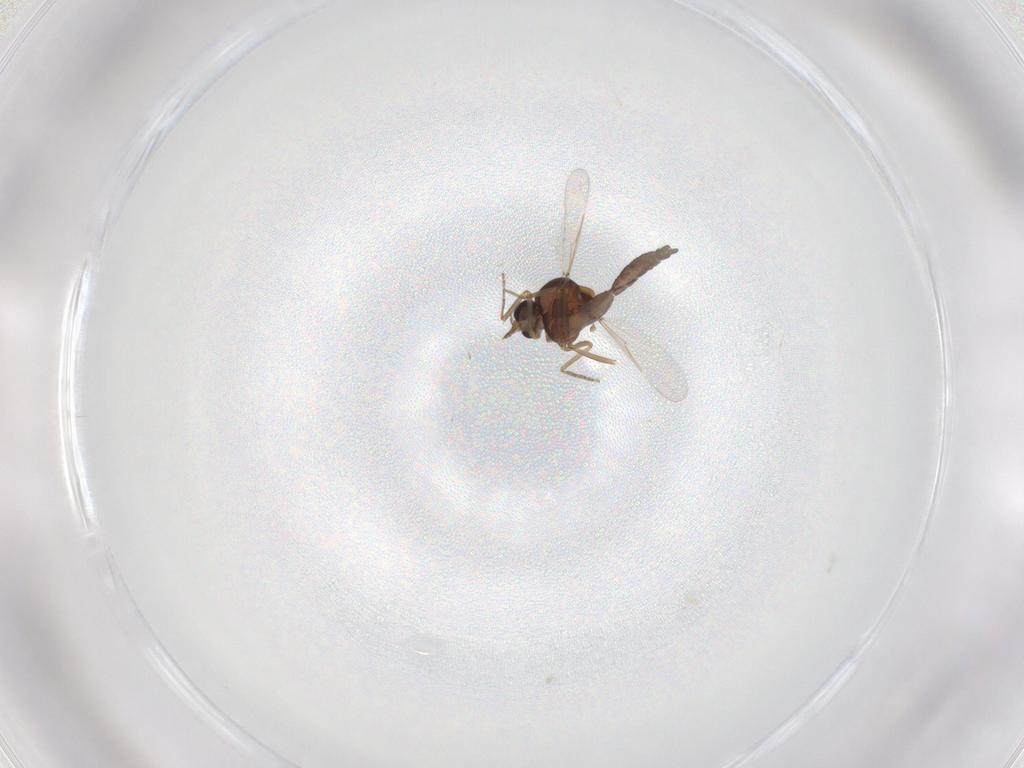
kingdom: Animalia
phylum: Arthropoda
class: Insecta
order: Diptera
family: Ceratopogonidae
